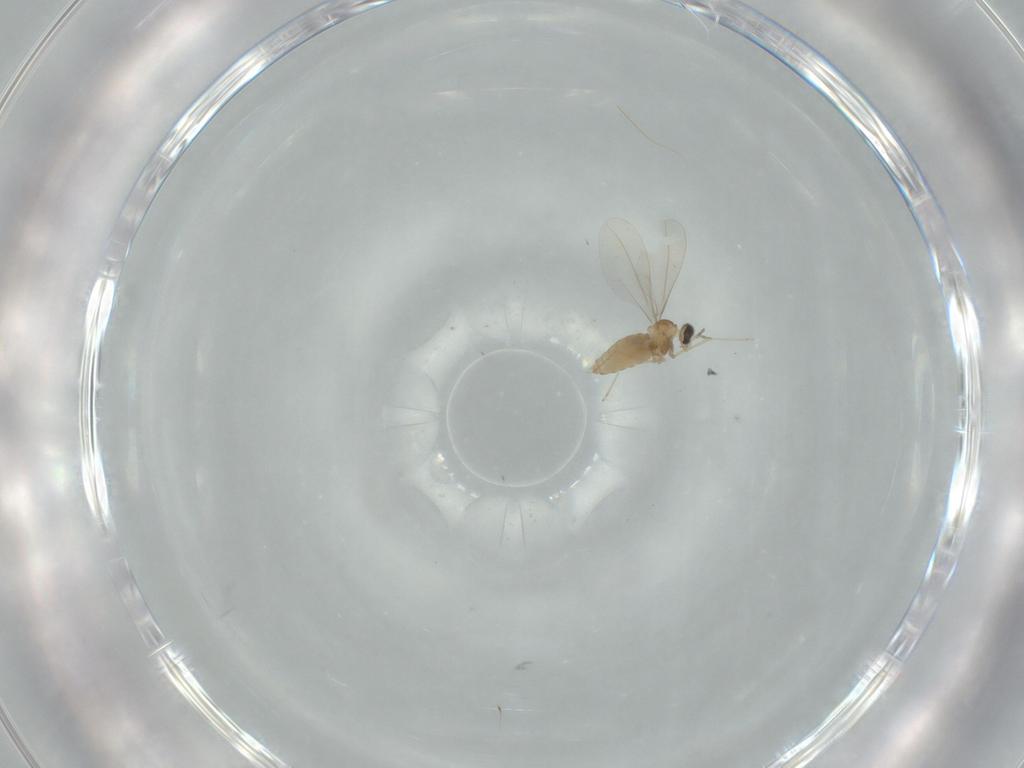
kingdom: Animalia
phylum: Arthropoda
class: Insecta
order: Diptera
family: Cecidomyiidae
